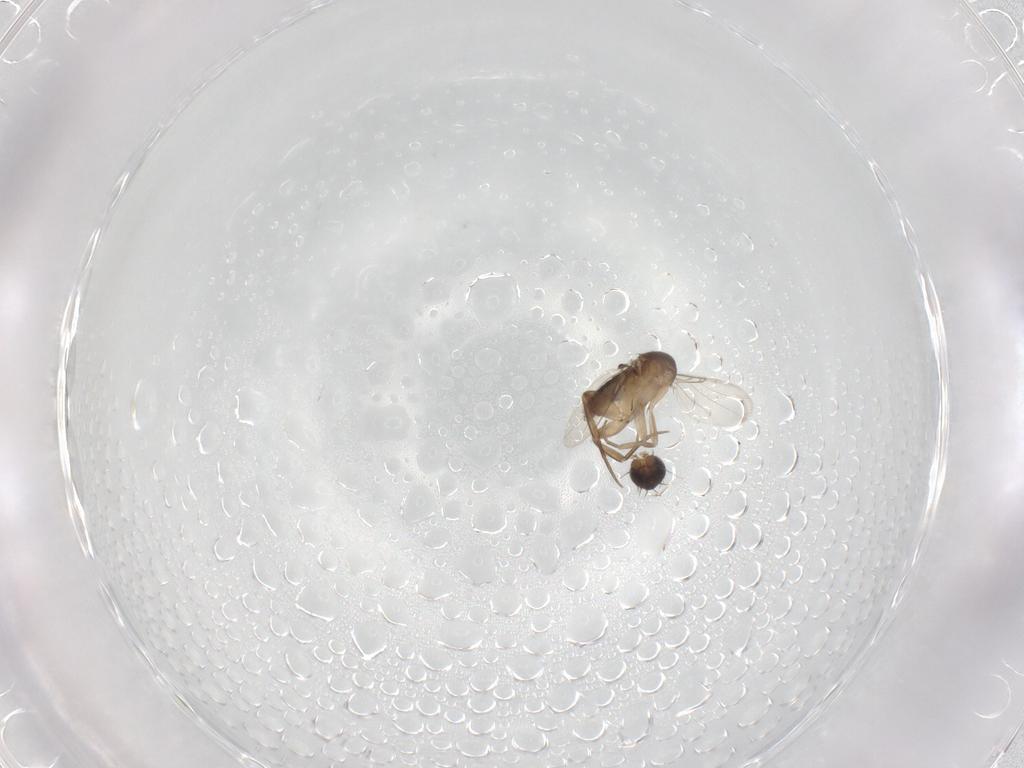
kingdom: Animalia
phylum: Arthropoda
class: Insecta
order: Diptera
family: Phoridae
